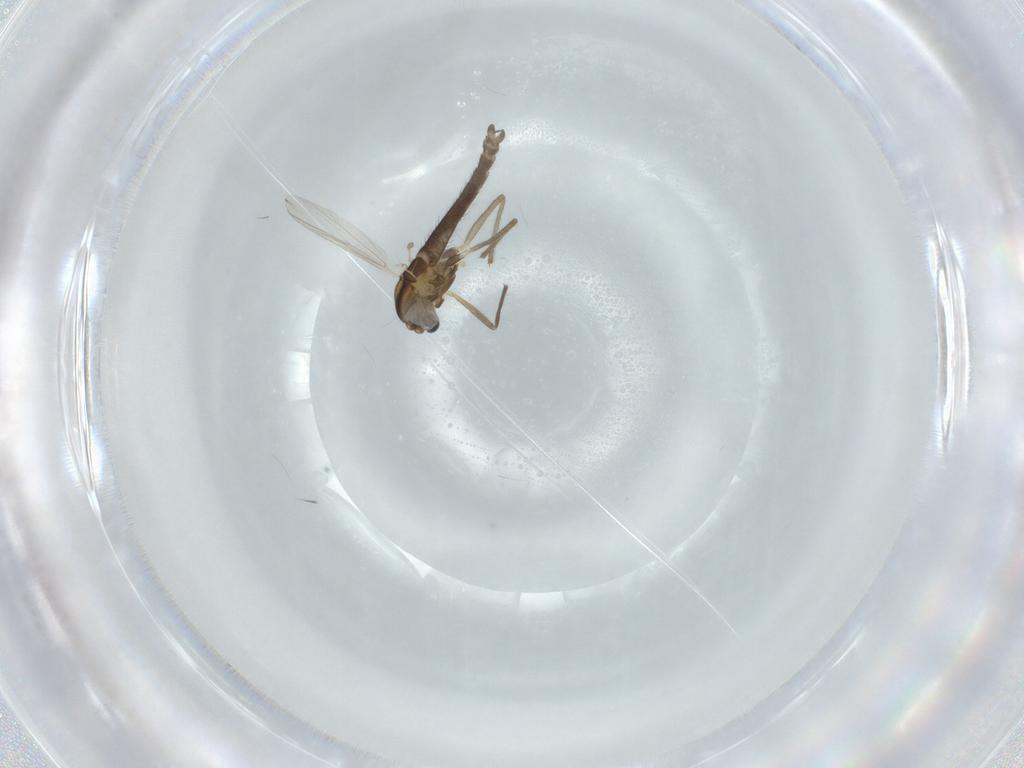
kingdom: Animalia
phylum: Arthropoda
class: Insecta
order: Diptera
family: Chironomidae
